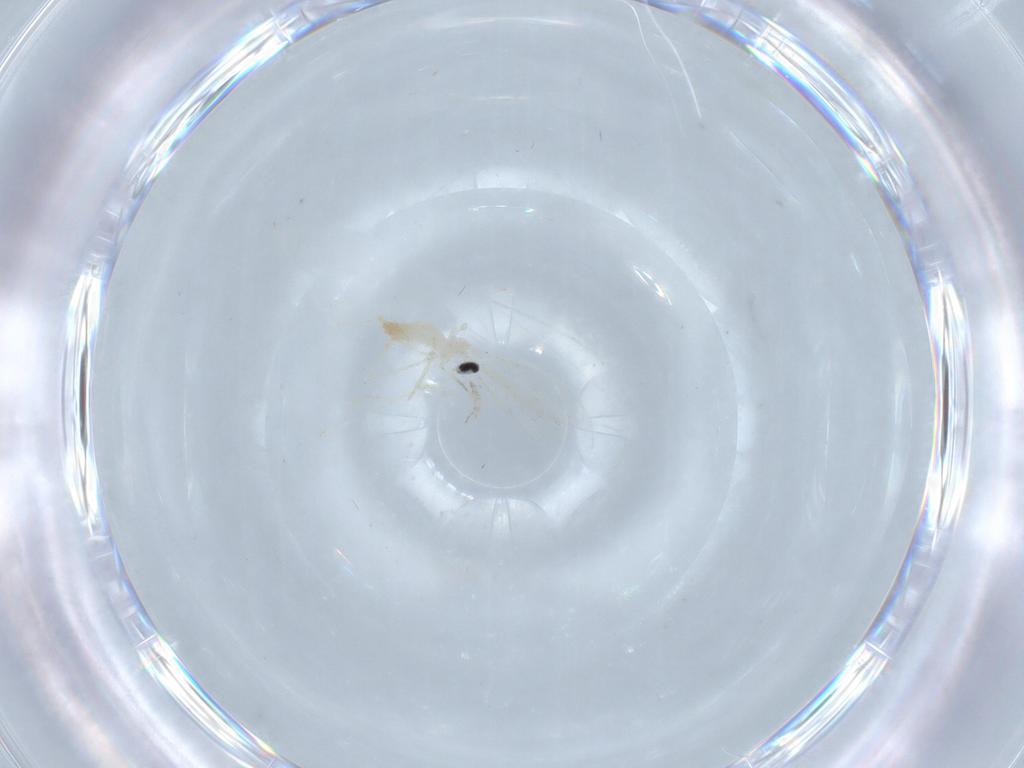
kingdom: Animalia
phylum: Arthropoda
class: Insecta
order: Diptera
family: Cecidomyiidae
